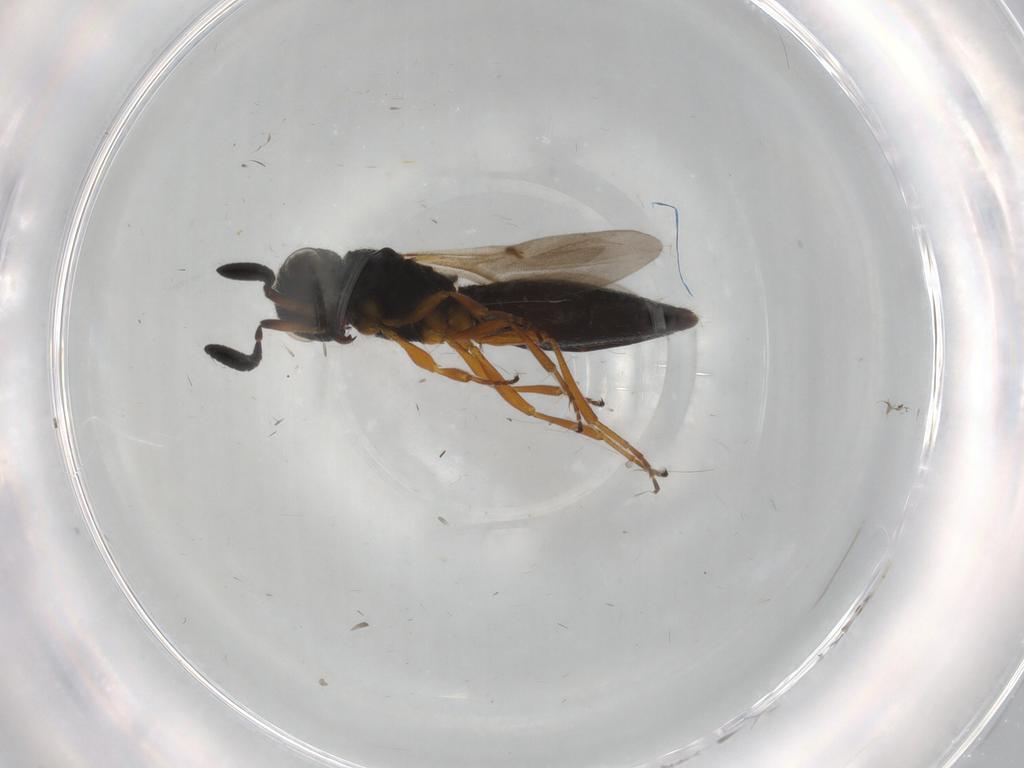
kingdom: Animalia
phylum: Arthropoda
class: Insecta
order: Hymenoptera
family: Scelionidae
